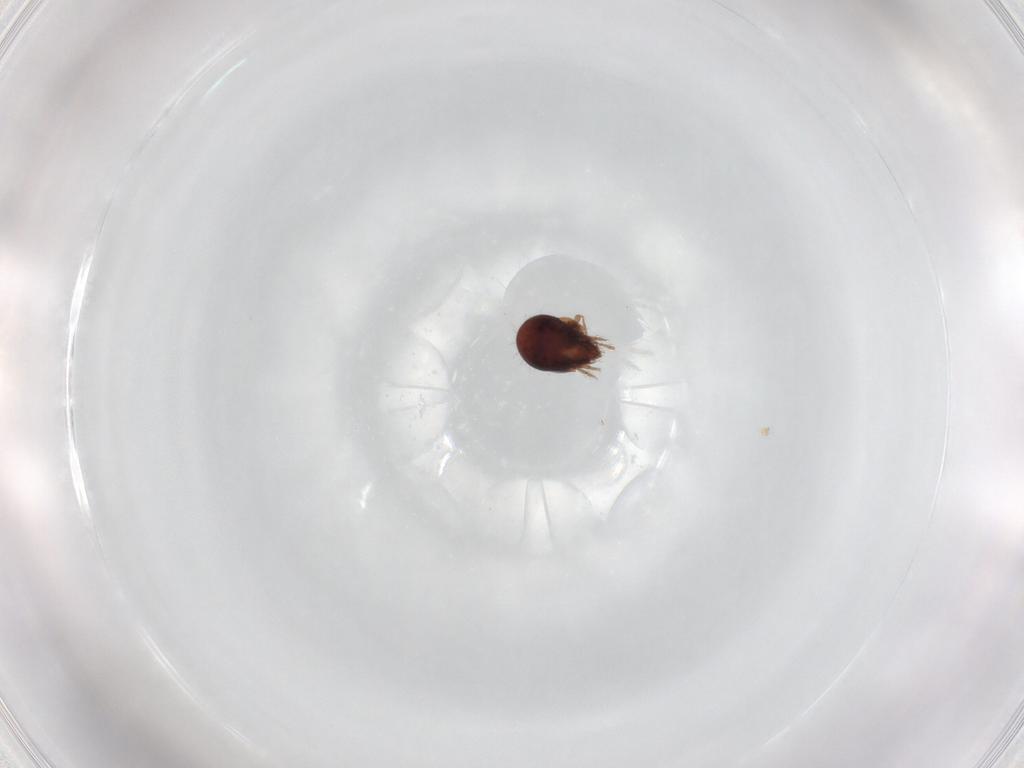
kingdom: Animalia
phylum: Arthropoda
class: Arachnida
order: Sarcoptiformes
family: Humerobatidae
